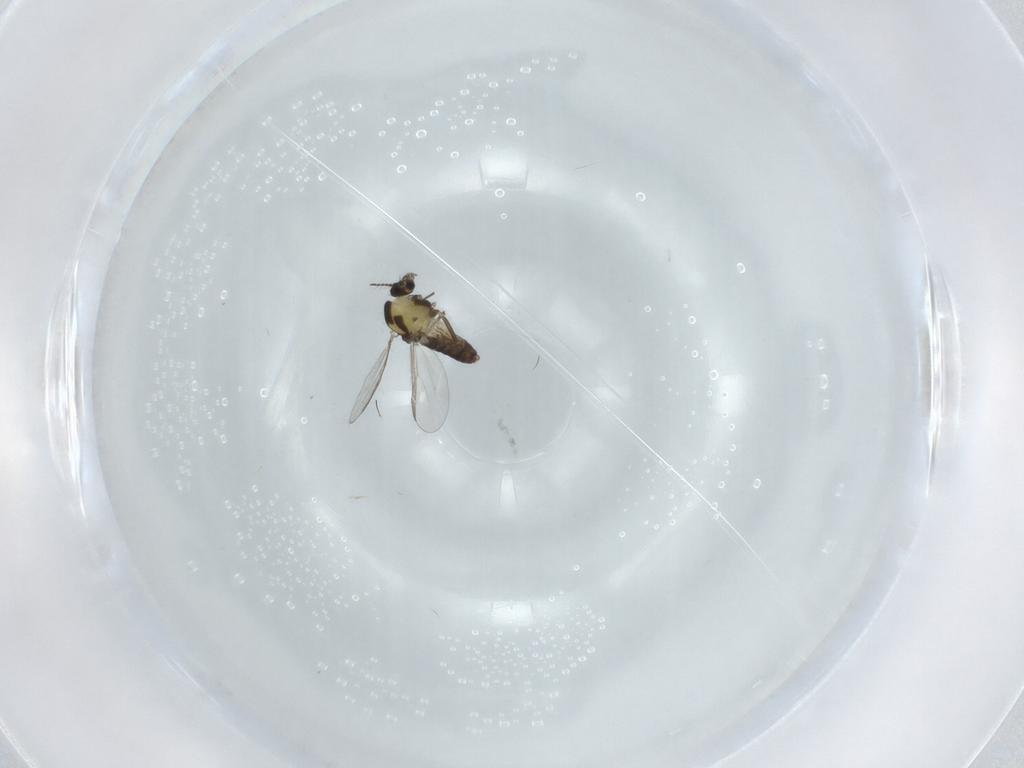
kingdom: Animalia
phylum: Arthropoda
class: Insecta
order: Diptera
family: Chironomidae
